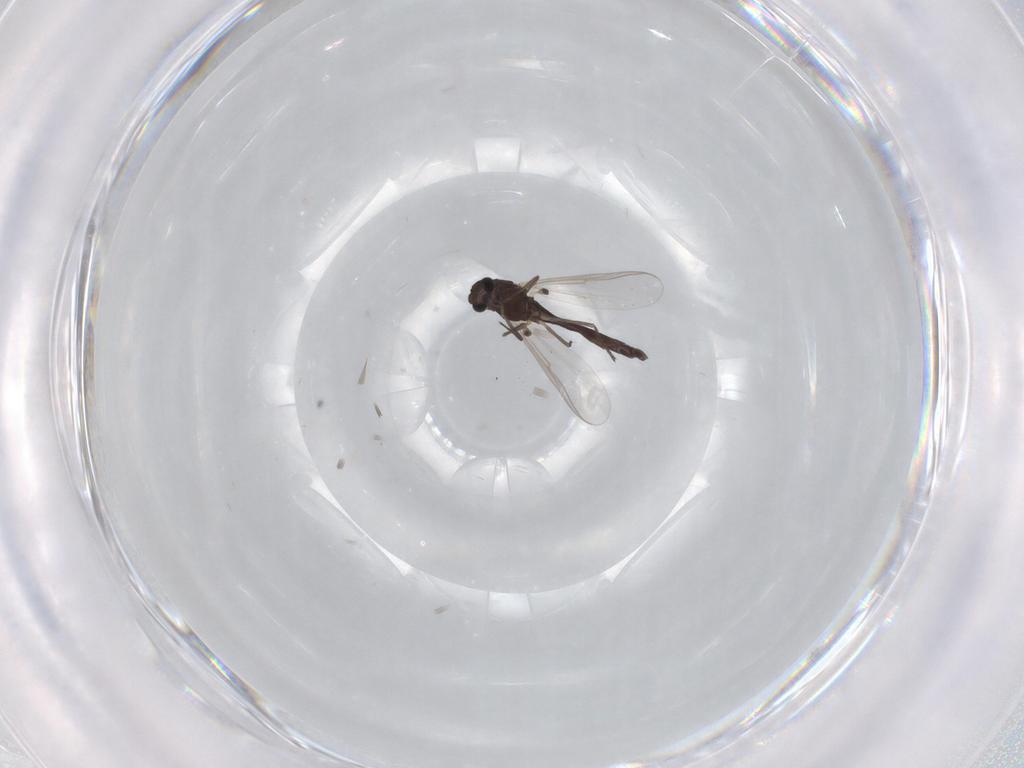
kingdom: Animalia
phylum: Arthropoda
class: Insecta
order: Diptera
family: Chironomidae
